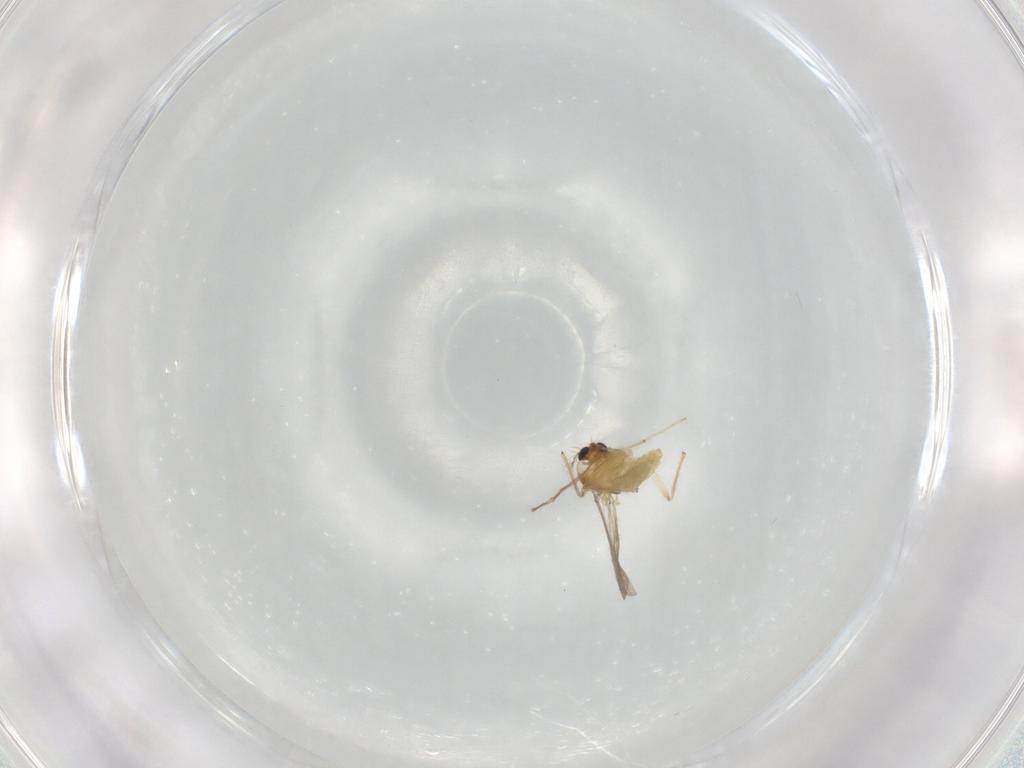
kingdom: Animalia
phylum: Arthropoda
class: Insecta
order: Diptera
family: Chironomidae
